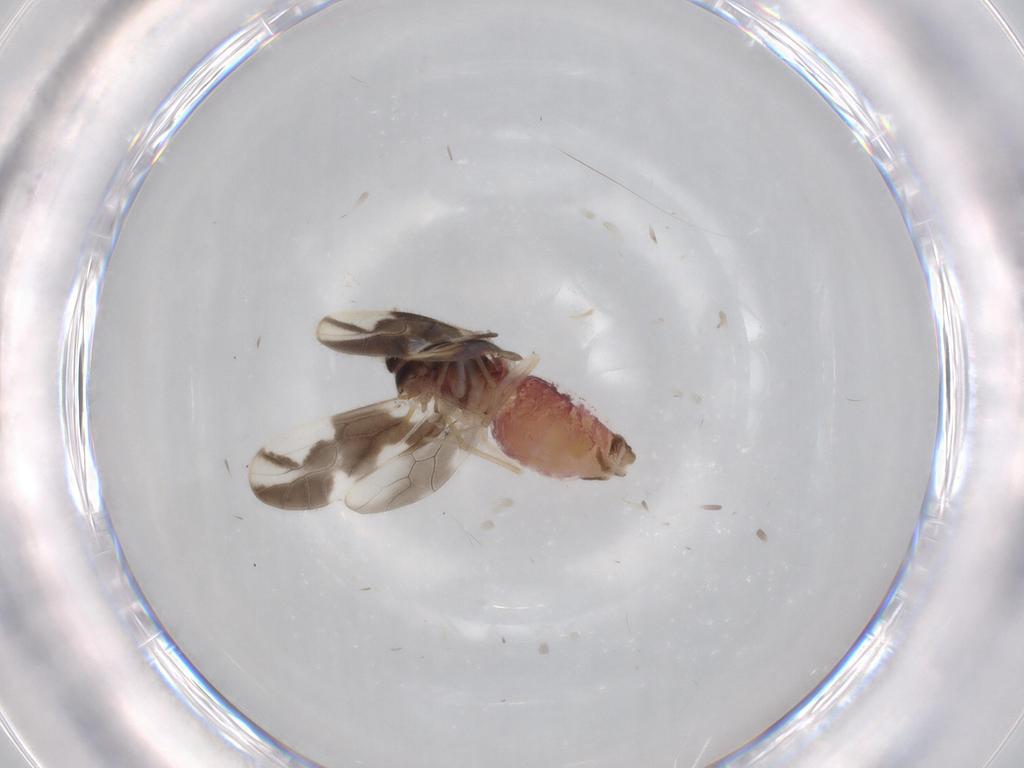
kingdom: Animalia
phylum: Arthropoda
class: Insecta
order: Psocodea
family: Caeciliusidae
